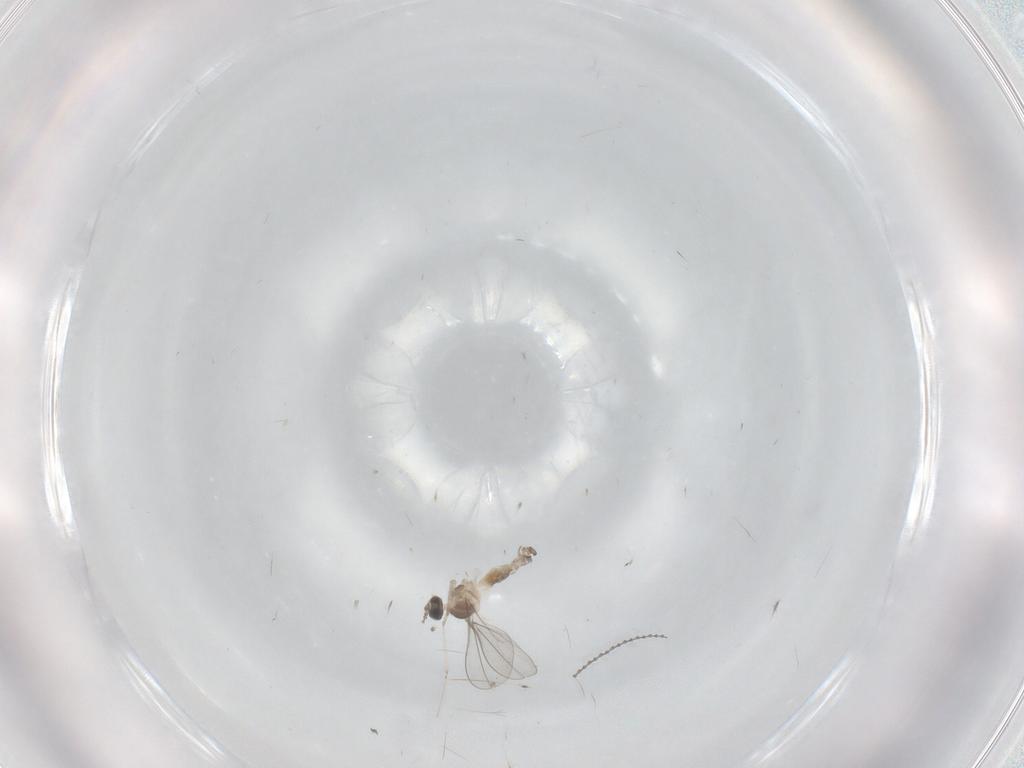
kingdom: Animalia
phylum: Arthropoda
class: Insecta
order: Diptera
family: Cecidomyiidae
